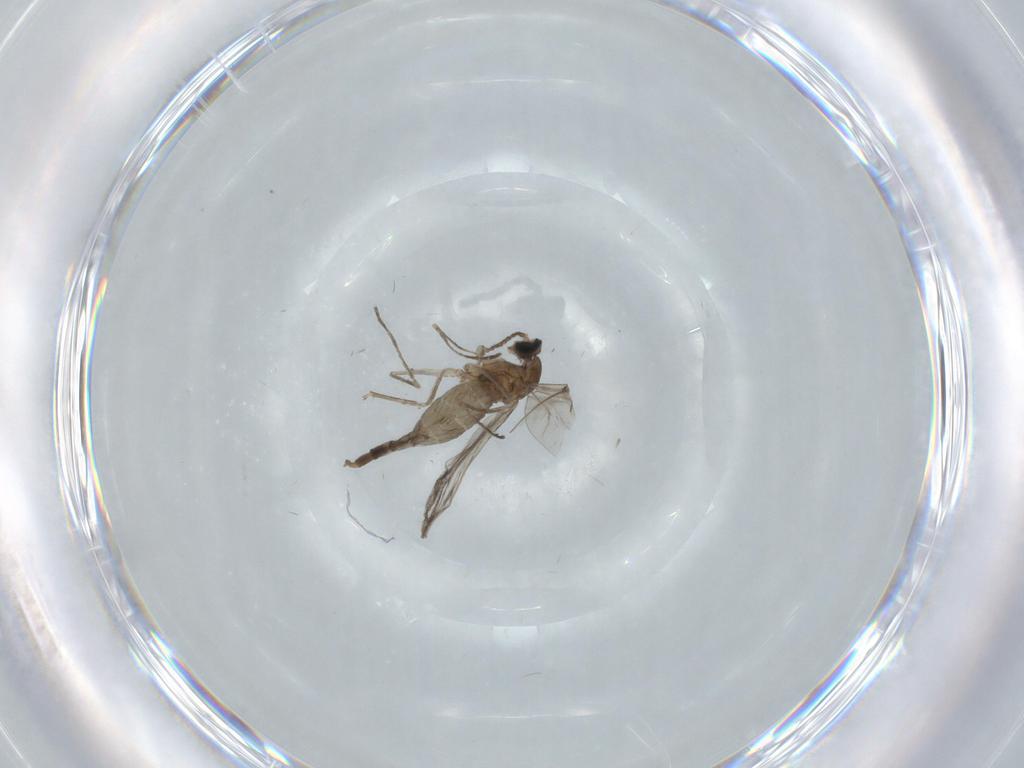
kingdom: Animalia
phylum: Arthropoda
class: Insecta
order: Diptera
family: Cecidomyiidae
